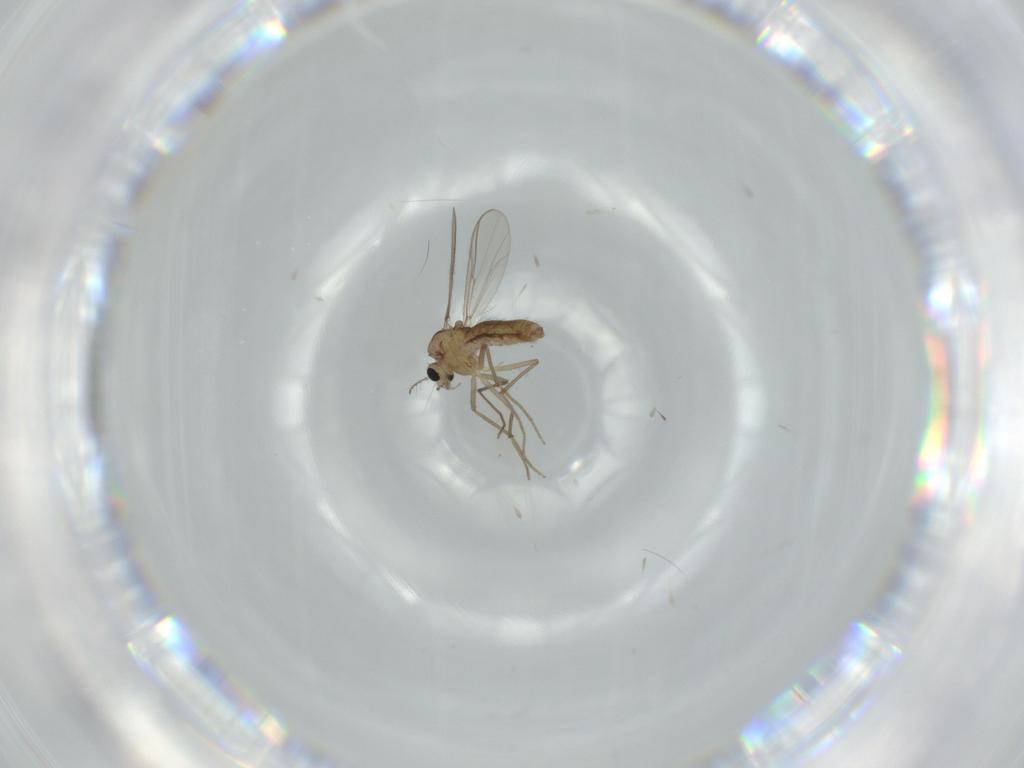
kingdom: Animalia
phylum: Arthropoda
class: Insecta
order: Diptera
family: Chironomidae
